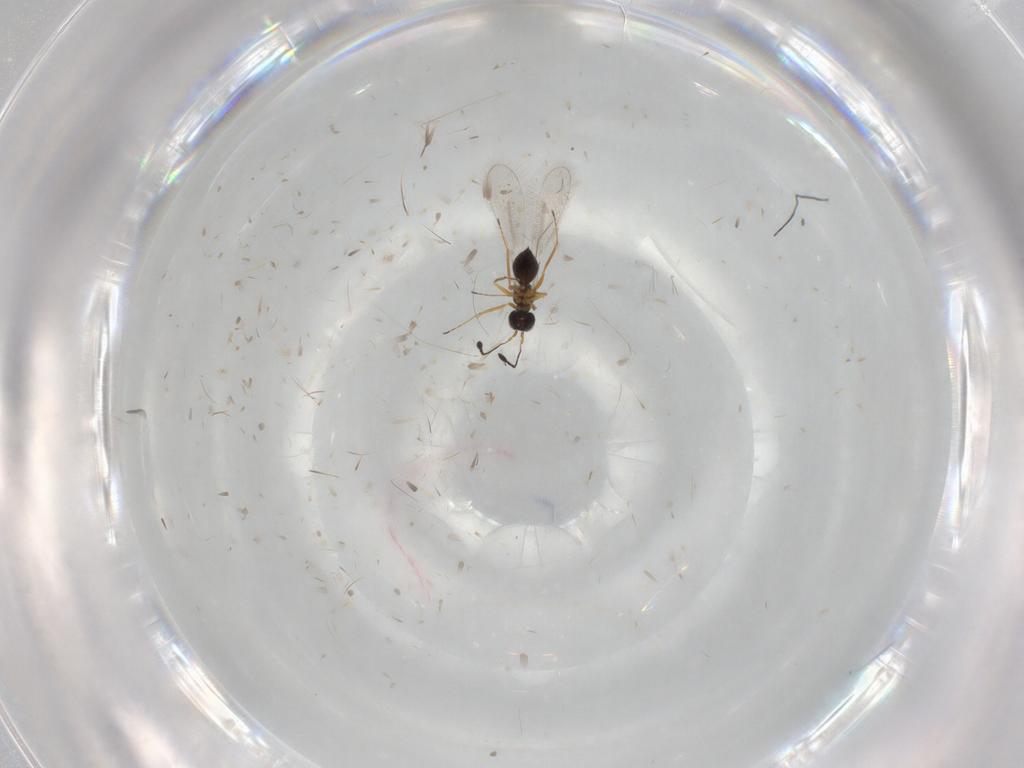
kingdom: Animalia
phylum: Arthropoda
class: Insecta
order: Hymenoptera
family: Mymaridae
